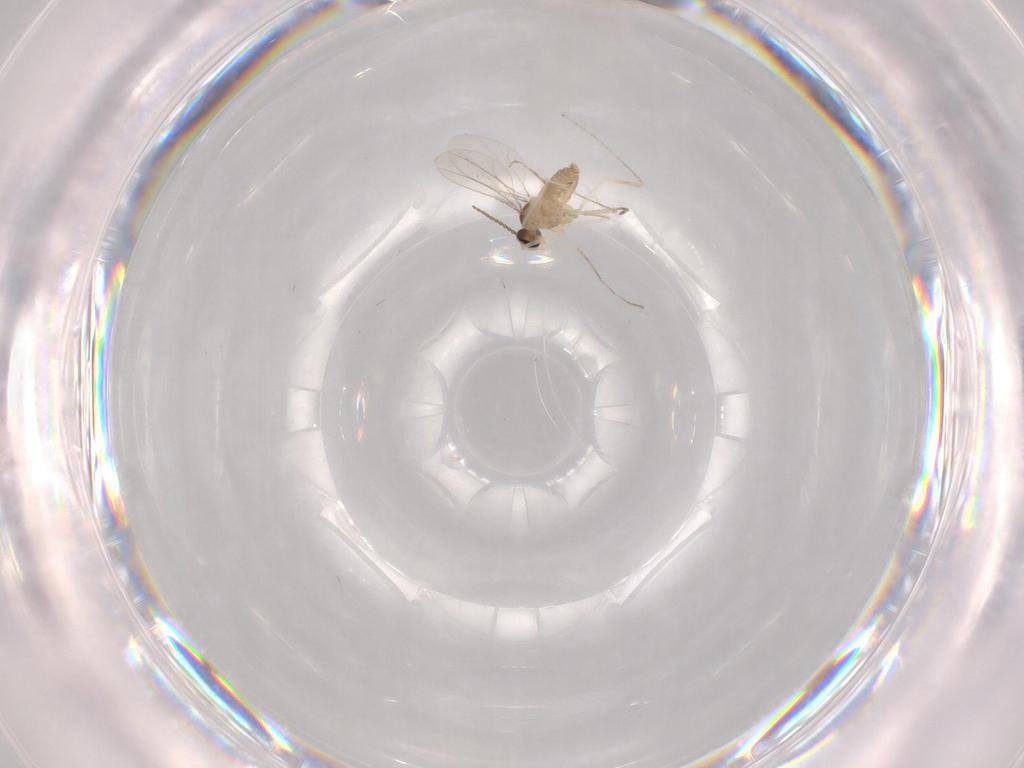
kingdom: Animalia
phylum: Arthropoda
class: Insecta
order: Diptera
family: Cecidomyiidae
